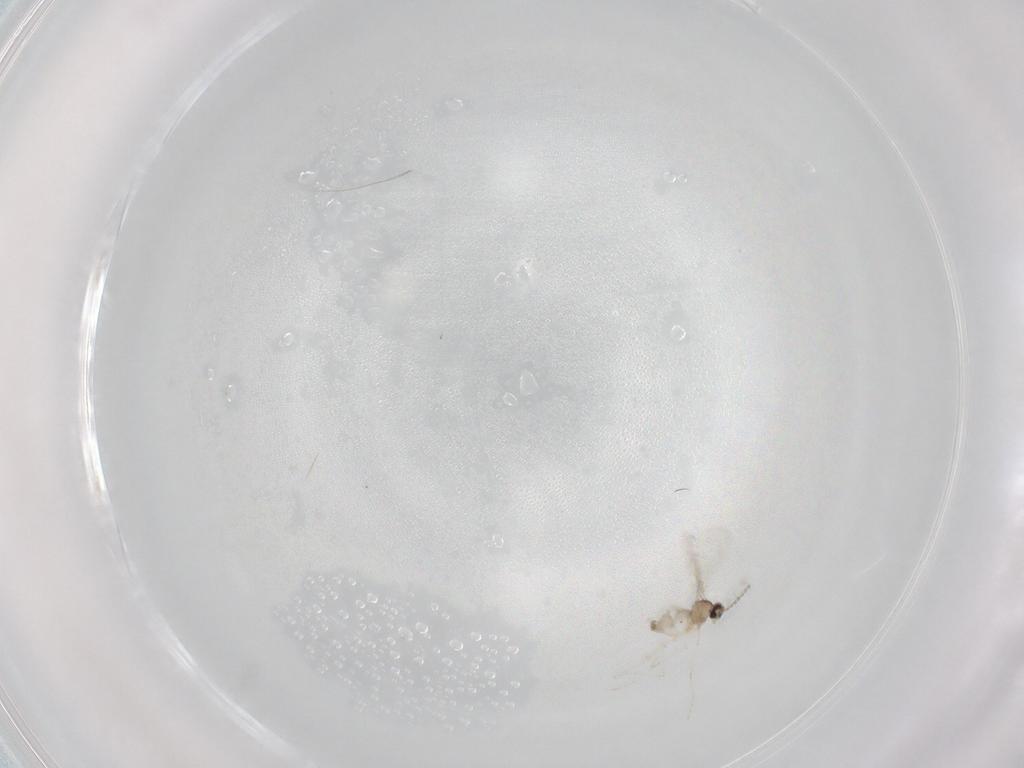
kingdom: Animalia
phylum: Arthropoda
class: Insecta
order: Diptera
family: Cecidomyiidae
